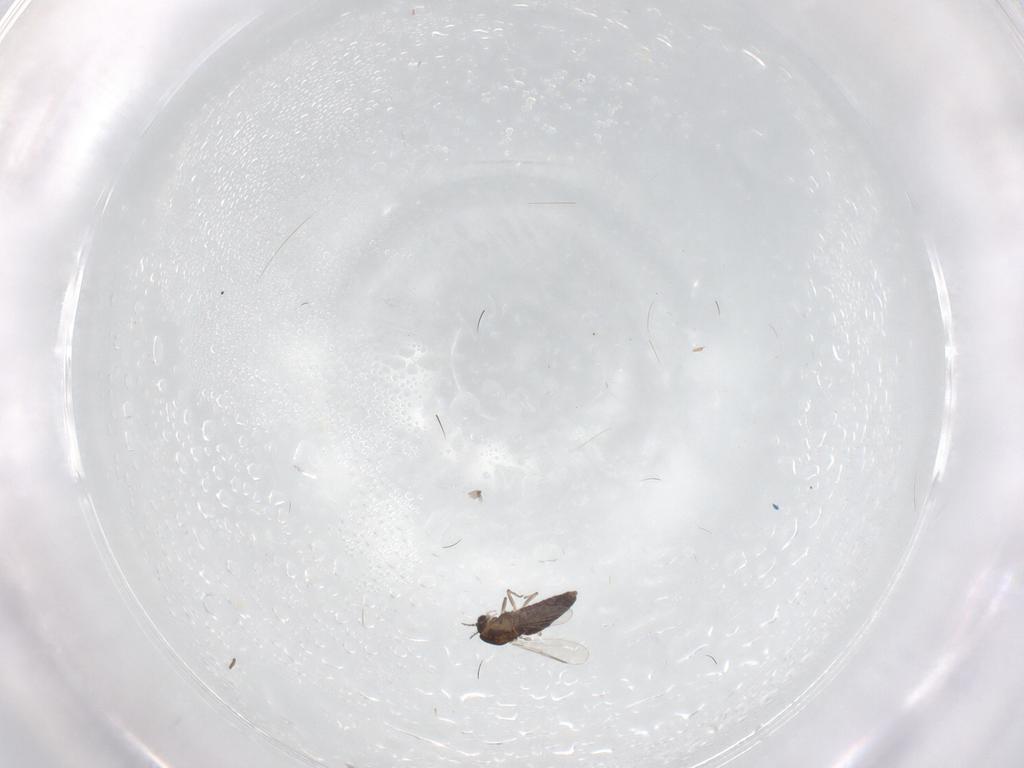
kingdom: Animalia
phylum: Arthropoda
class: Insecta
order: Diptera
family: Chironomidae
